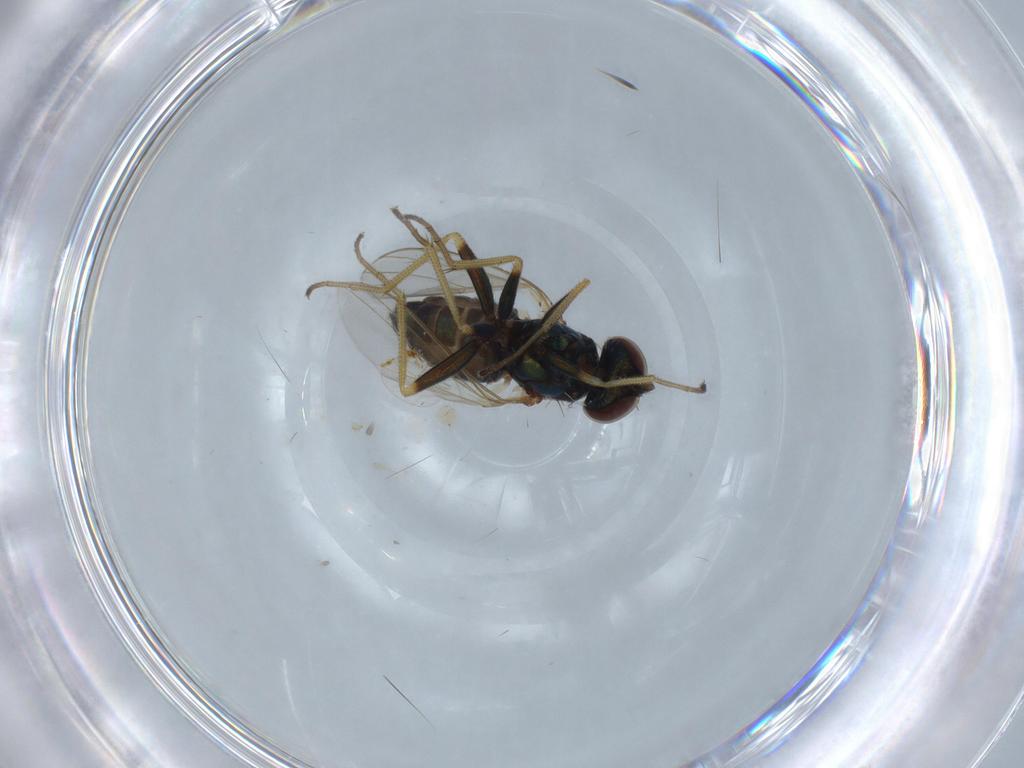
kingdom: Animalia
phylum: Arthropoda
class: Insecta
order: Diptera
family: Dolichopodidae
